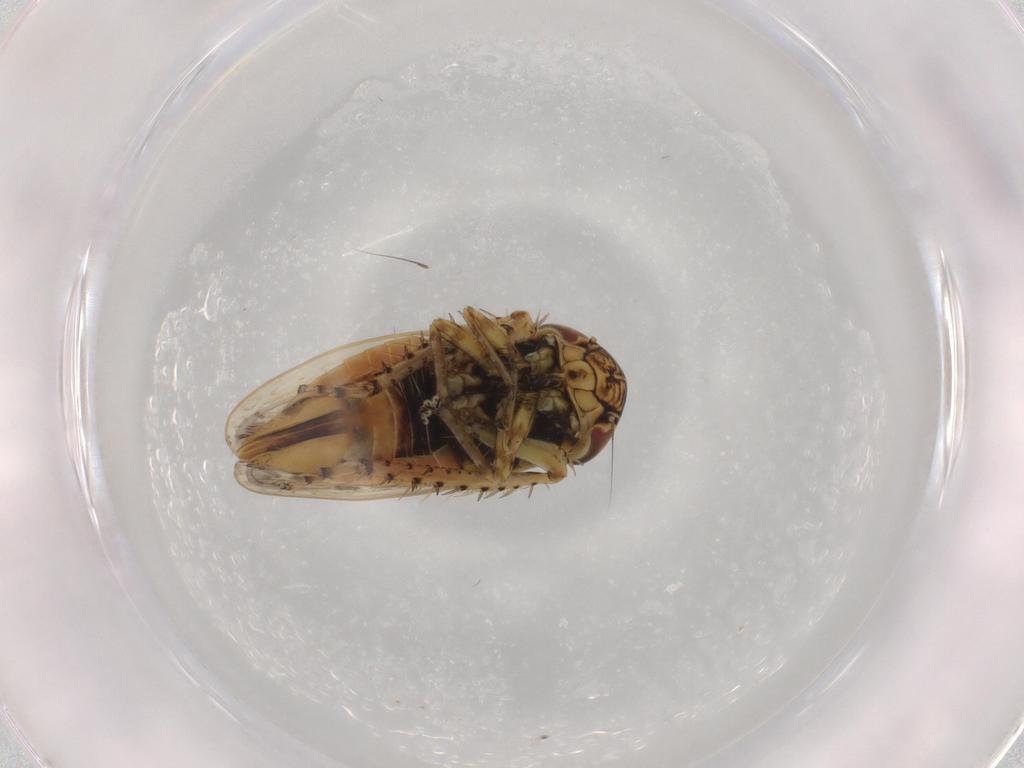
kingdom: Animalia
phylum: Arthropoda
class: Insecta
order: Hemiptera
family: Cicadellidae
